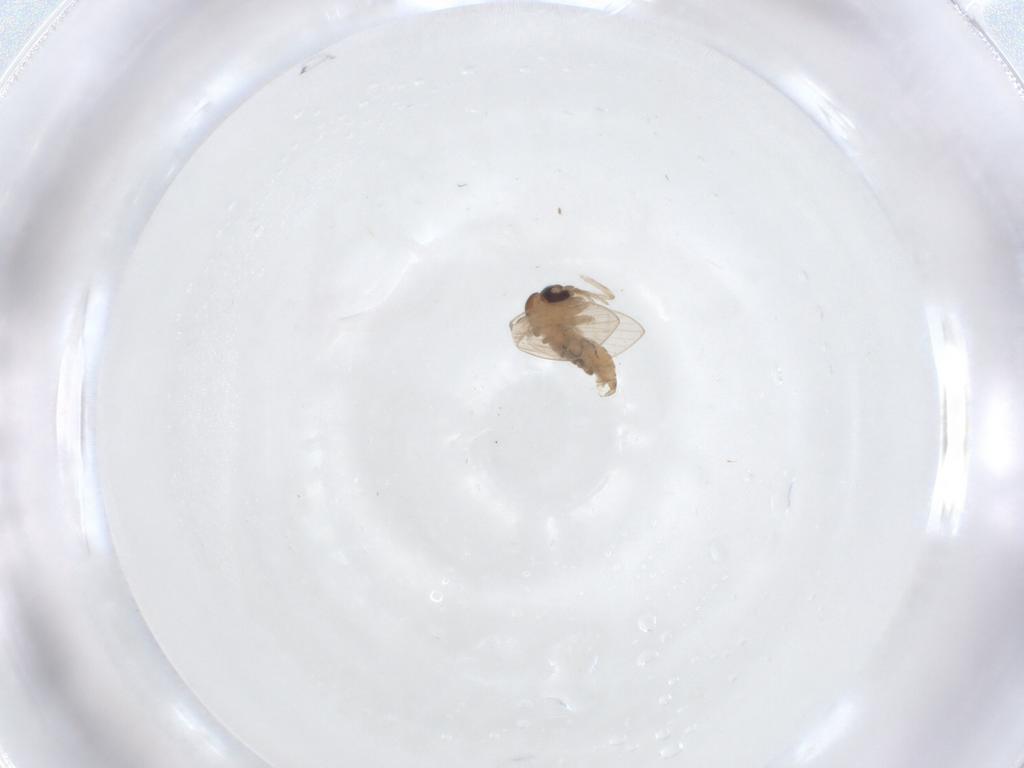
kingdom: Animalia
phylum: Arthropoda
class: Insecta
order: Diptera
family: Psychodidae
